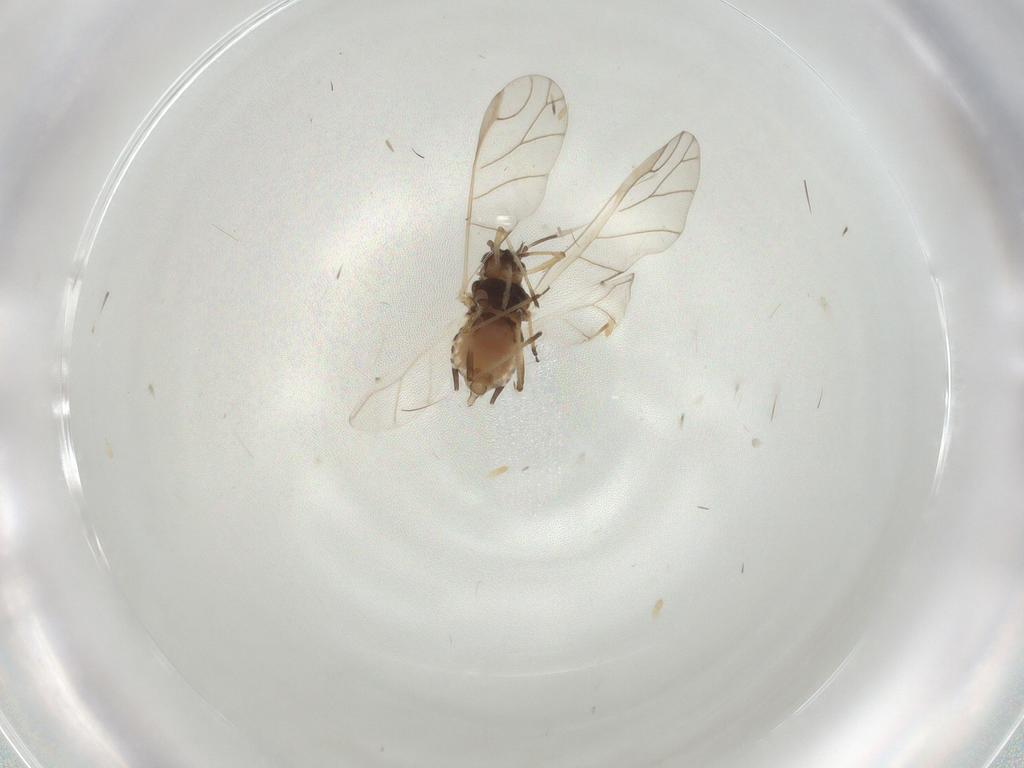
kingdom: Animalia
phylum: Arthropoda
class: Insecta
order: Hemiptera
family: Aphididae
